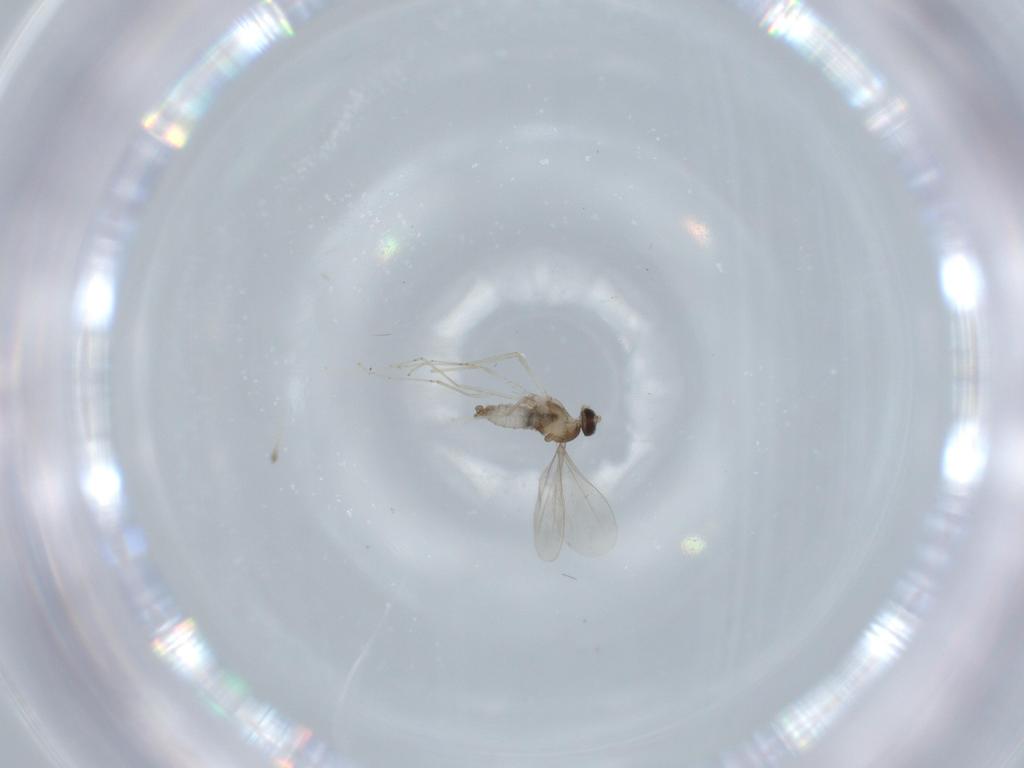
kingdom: Animalia
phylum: Arthropoda
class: Insecta
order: Diptera
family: Cecidomyiidae
